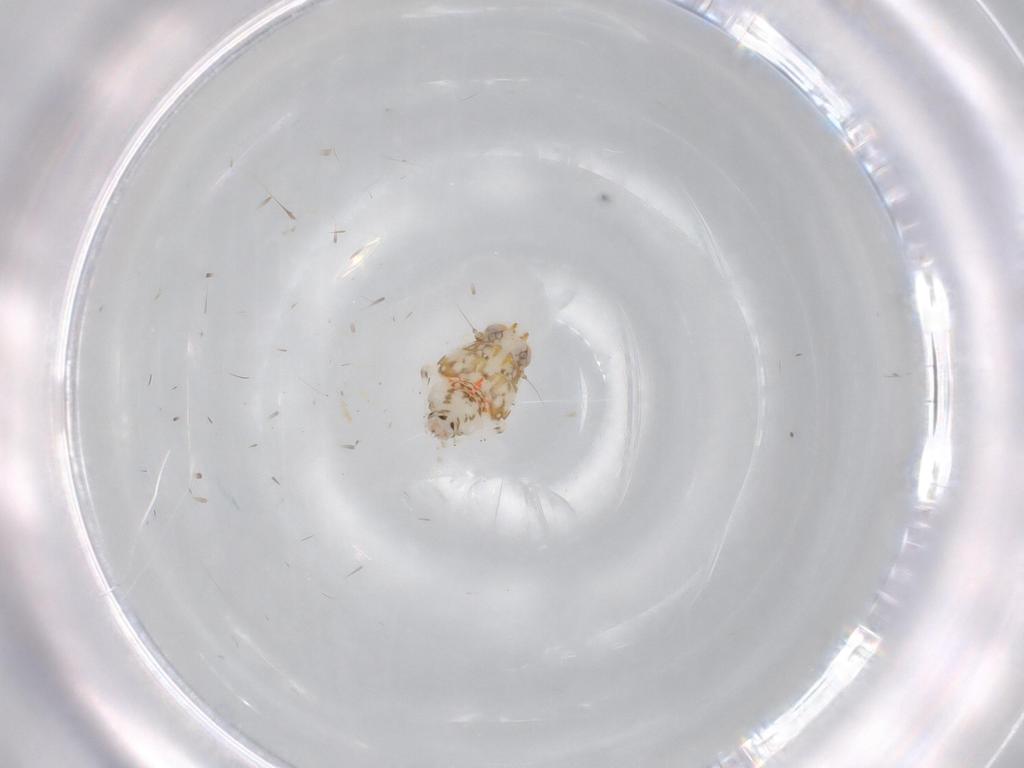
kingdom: Animalia
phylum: Arthropoda
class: Insecta
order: Hemiptera
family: Nogodinidae
